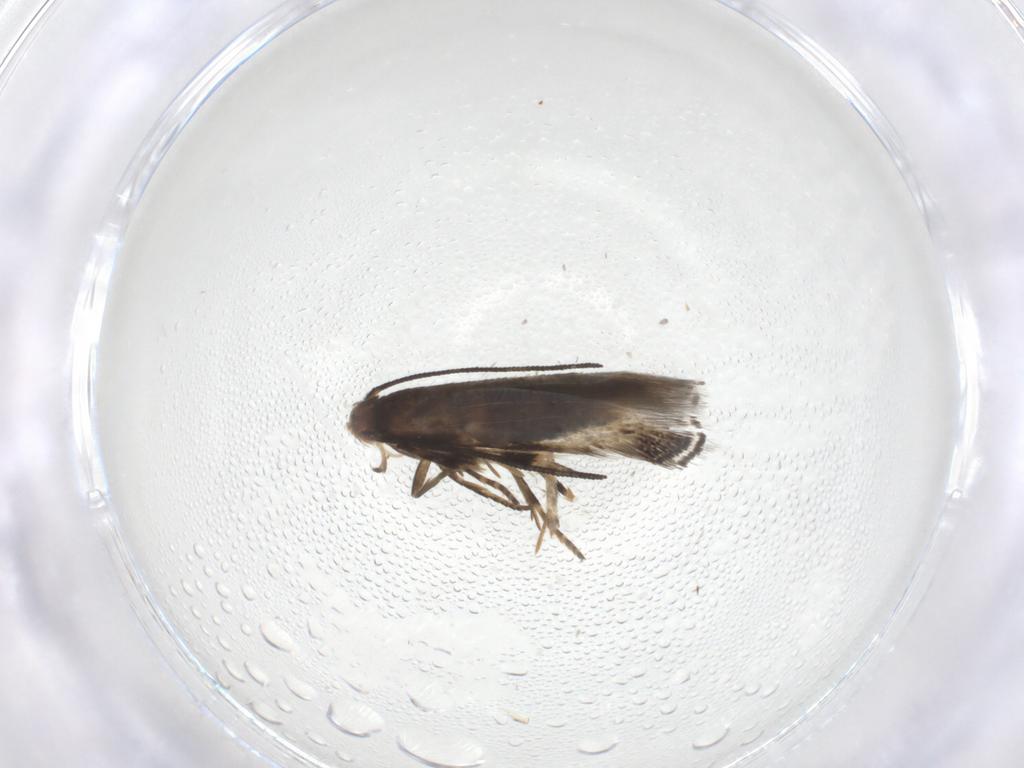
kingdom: Animalia
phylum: Arthropoda
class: Insecta
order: Lepidoptera
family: Momphidae
